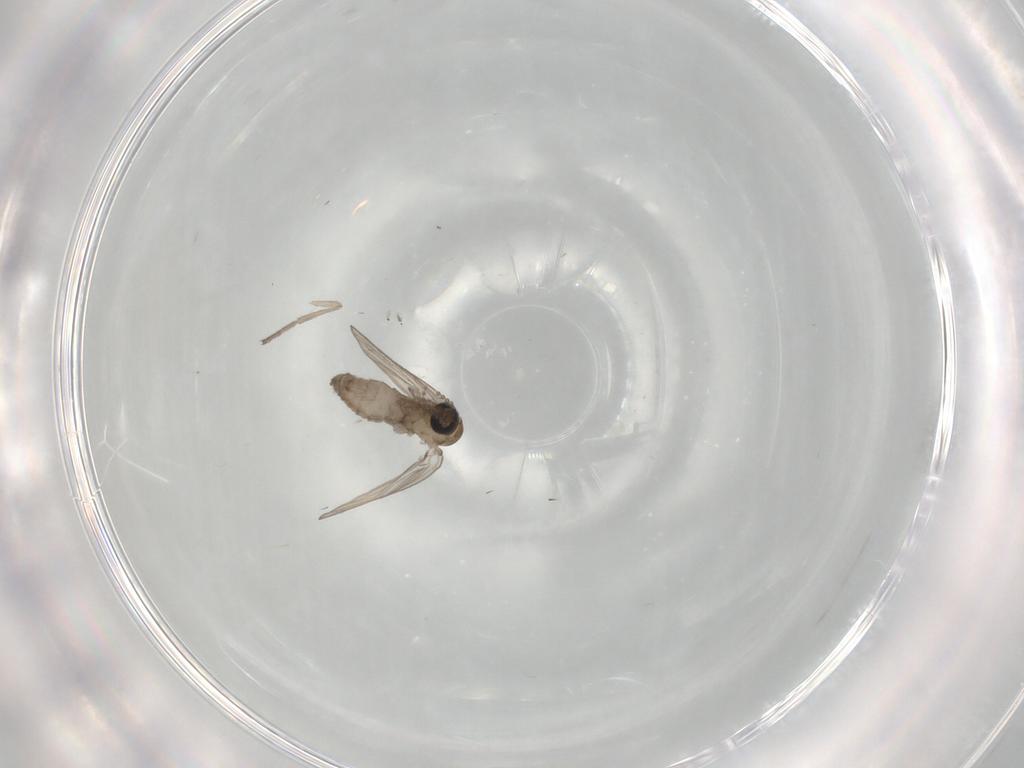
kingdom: Animalia
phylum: Arthropoda
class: Insecta
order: Diptera
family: Psychodidae
